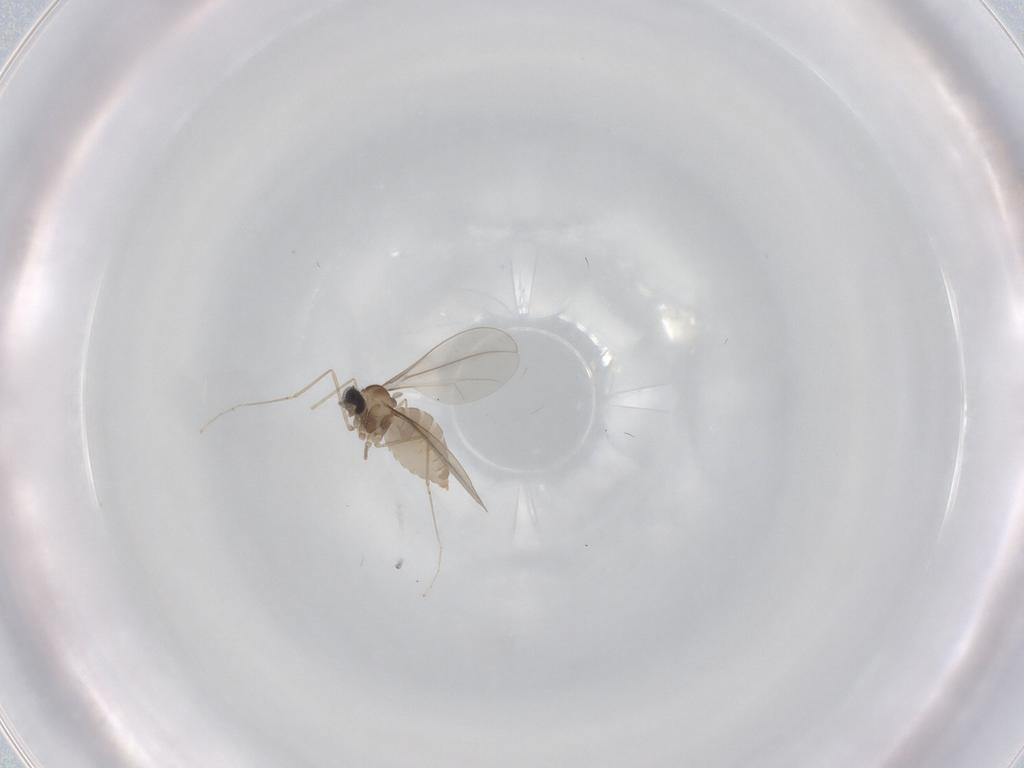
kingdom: Animalia
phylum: Arthropoda
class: Insecta
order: Diptera
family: Cecidomyiidae
